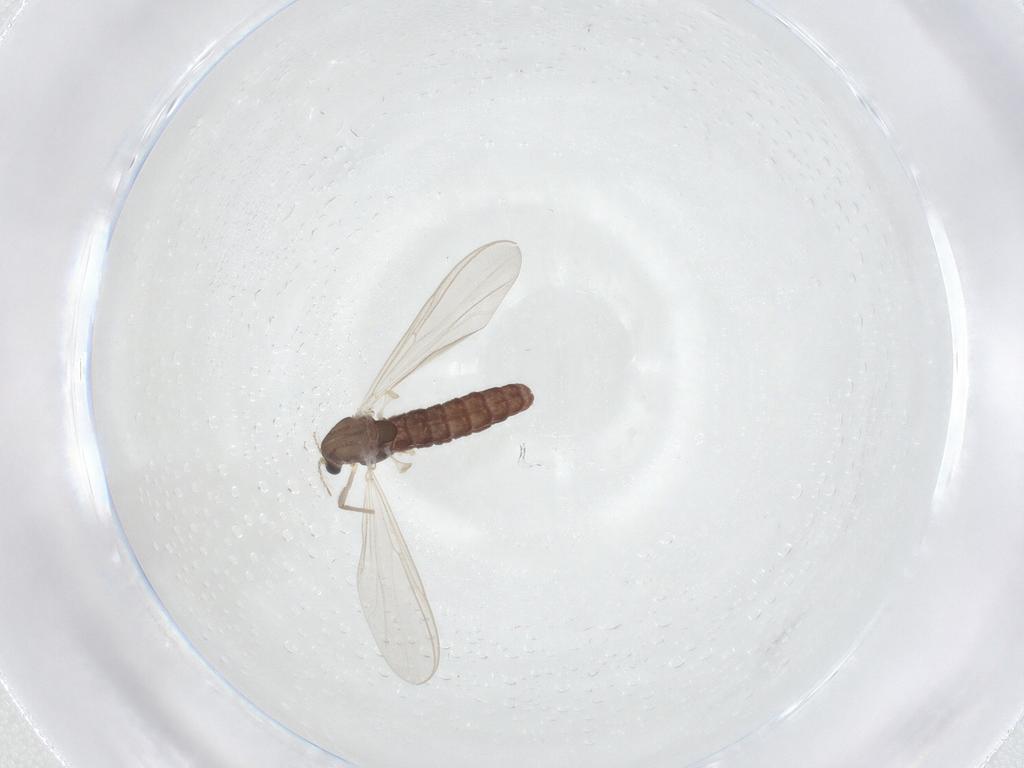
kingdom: Animalia
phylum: Arthropoda
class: Insecta
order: Diptera
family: Chironomidae
